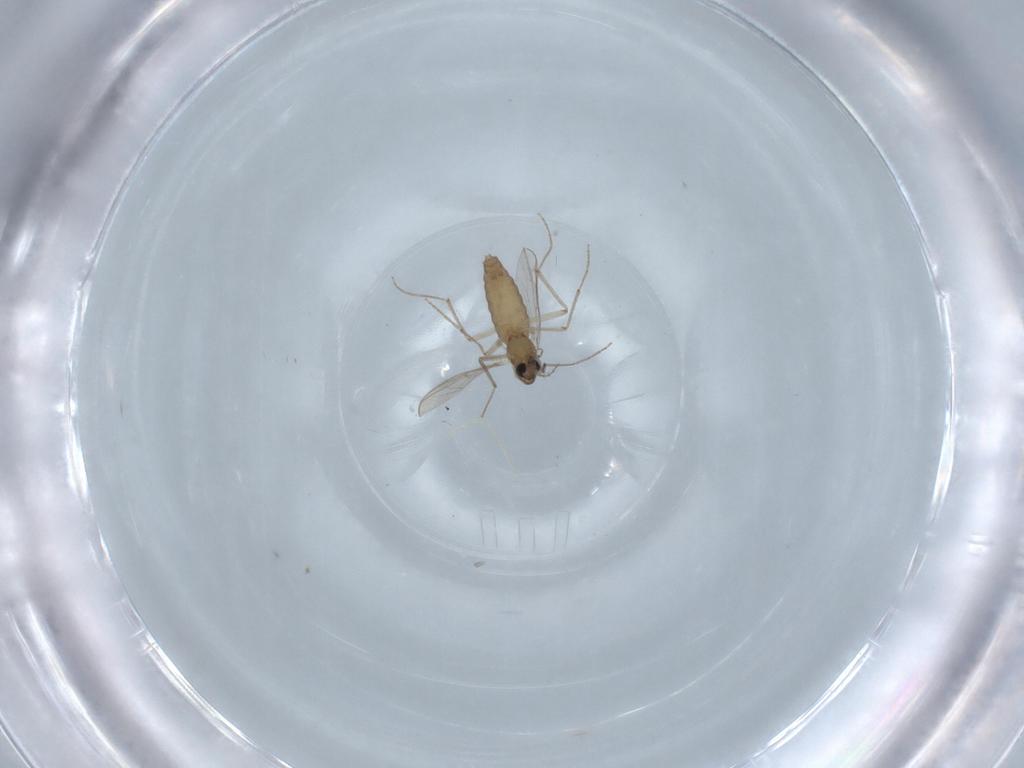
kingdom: Animalia
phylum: Arthropoda
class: Insecta
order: Diptera
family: Chironomidae
